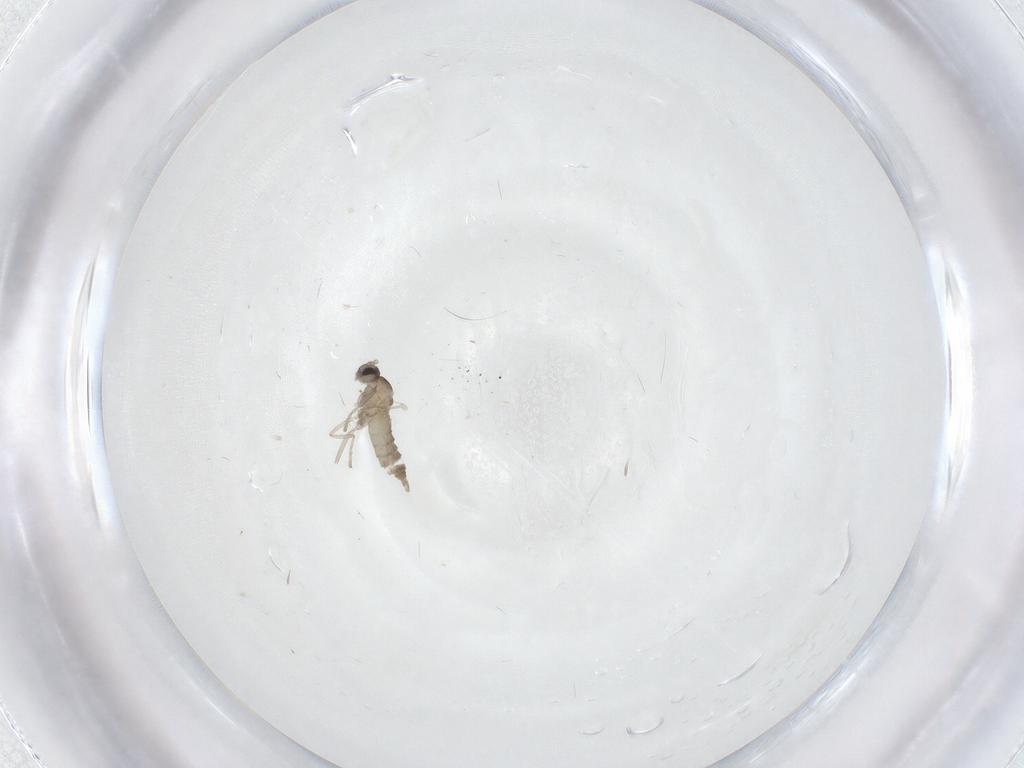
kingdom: Animalia
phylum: Arthropoda
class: Insecta
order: Diptera
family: Cecidomyiidae
